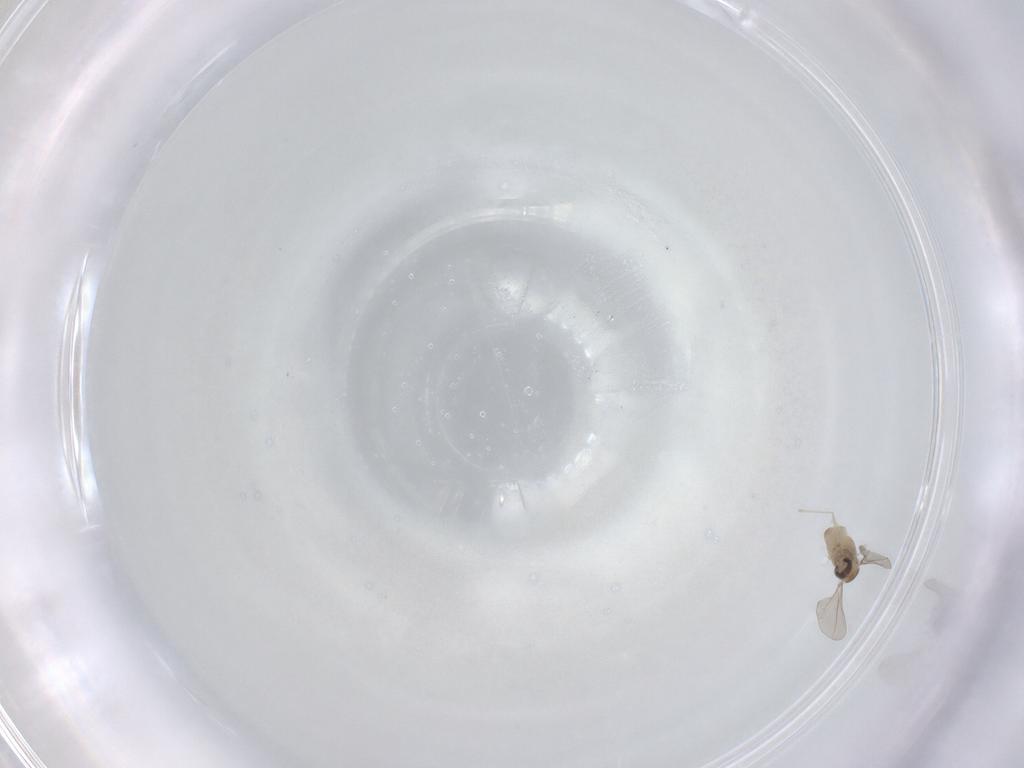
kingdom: Animalia
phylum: Arthropoda
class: Insecta
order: Diptera
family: Cecidomyiidae
